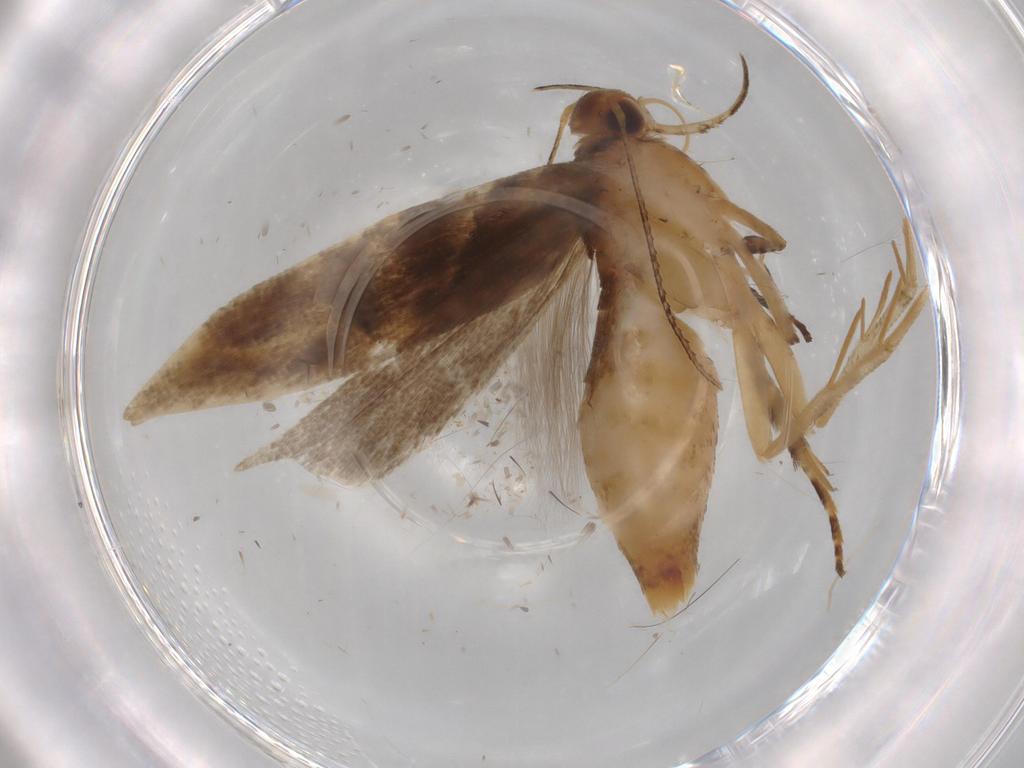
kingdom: Animalia
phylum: Arthropoda
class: Insecta
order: Lepidoptera
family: Gelechiidae
